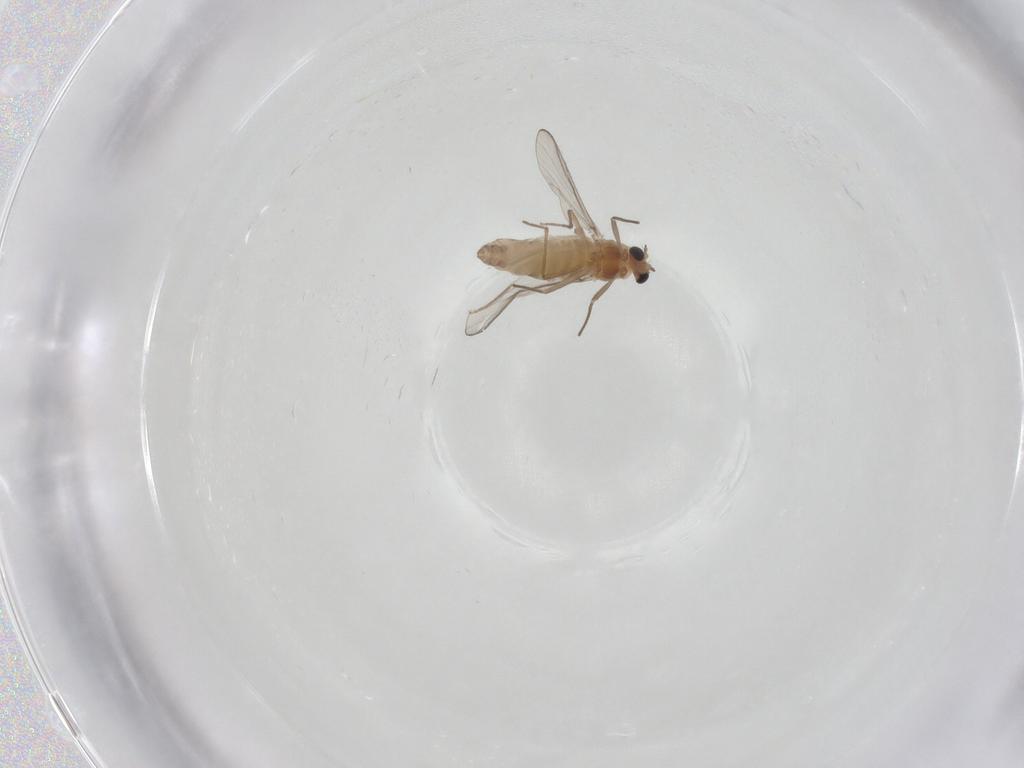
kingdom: Animalia
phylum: Arthropoda
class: Insecta
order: Diptera
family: Chironomidae
